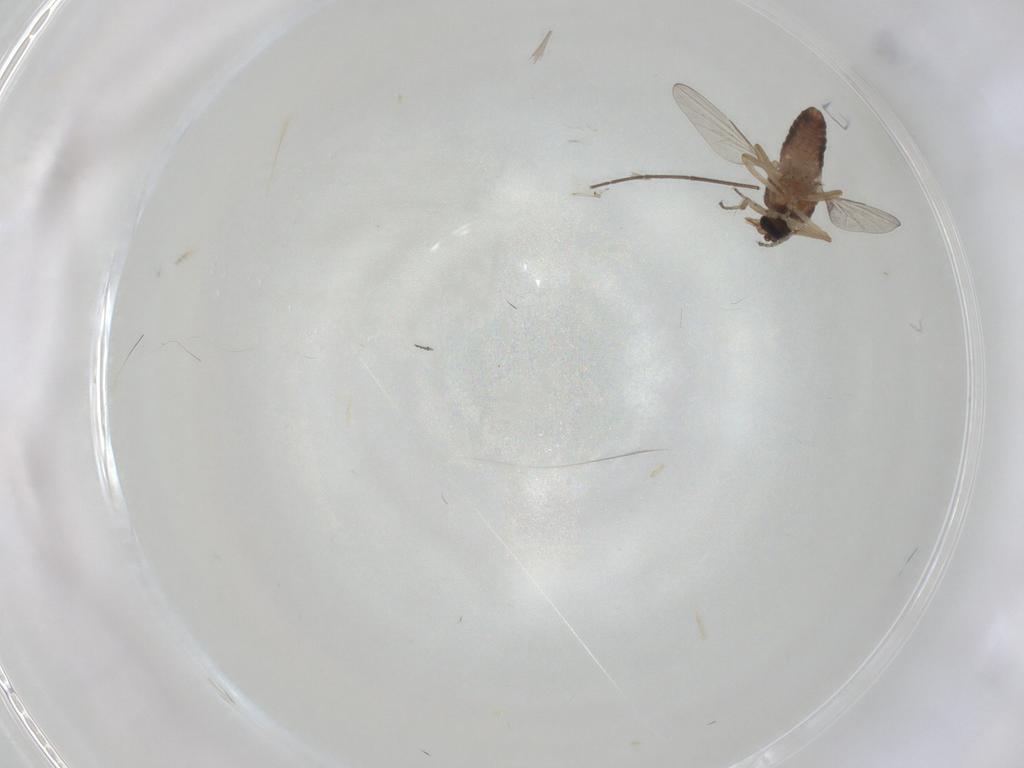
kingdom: Animalia
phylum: Arthropoda
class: Insecta
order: Diptera
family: Ceratopogonidae
